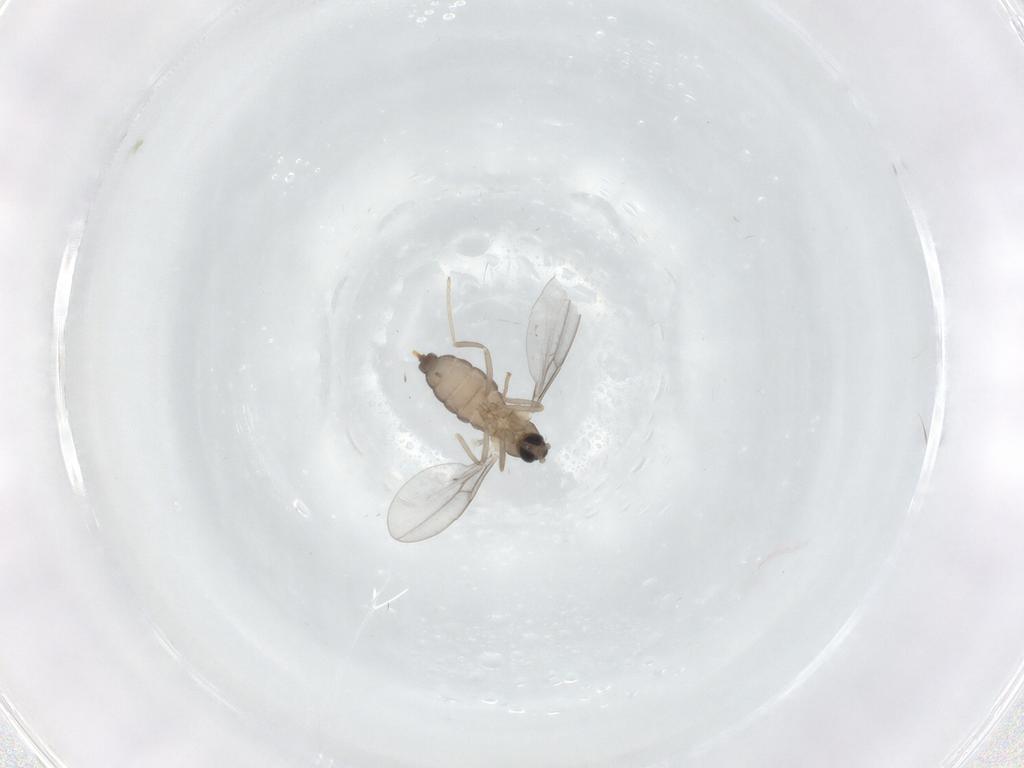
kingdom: Animalia
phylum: Arthropoda
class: Insecta
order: Diptera
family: Cecidomyiidae
